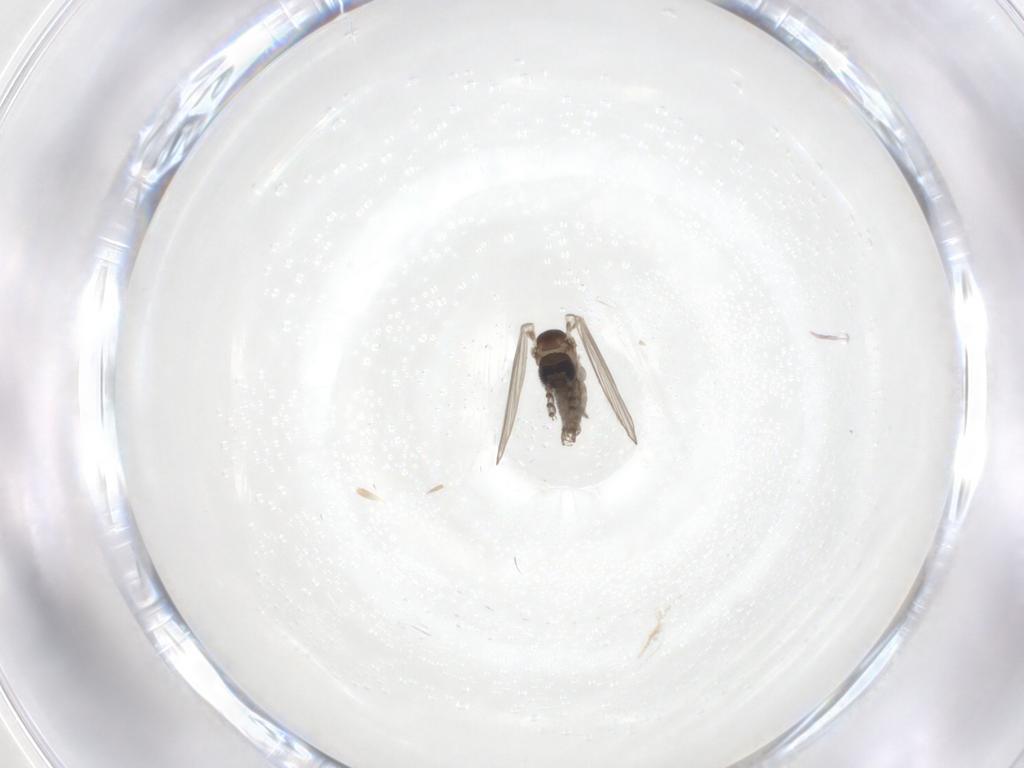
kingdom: Animalia
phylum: Arthropoda
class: Insecta
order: Diptera
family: Psychodidae
